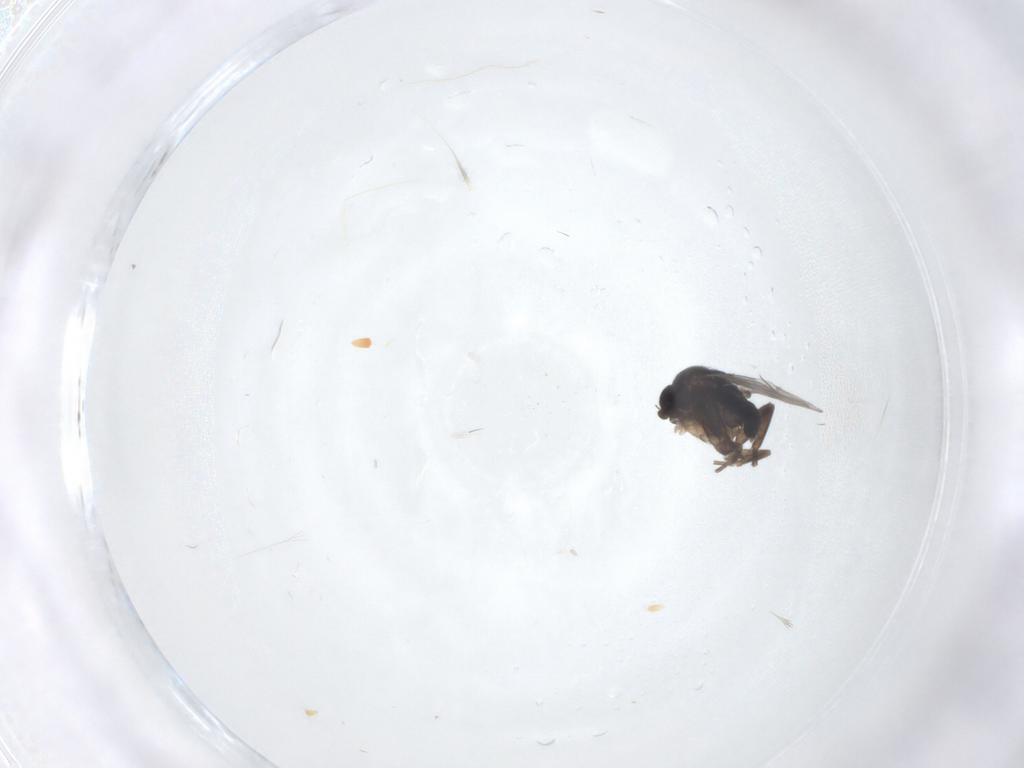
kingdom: Animalia
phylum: Arthropoda
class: Insecta
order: Diptera
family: Phoridae
